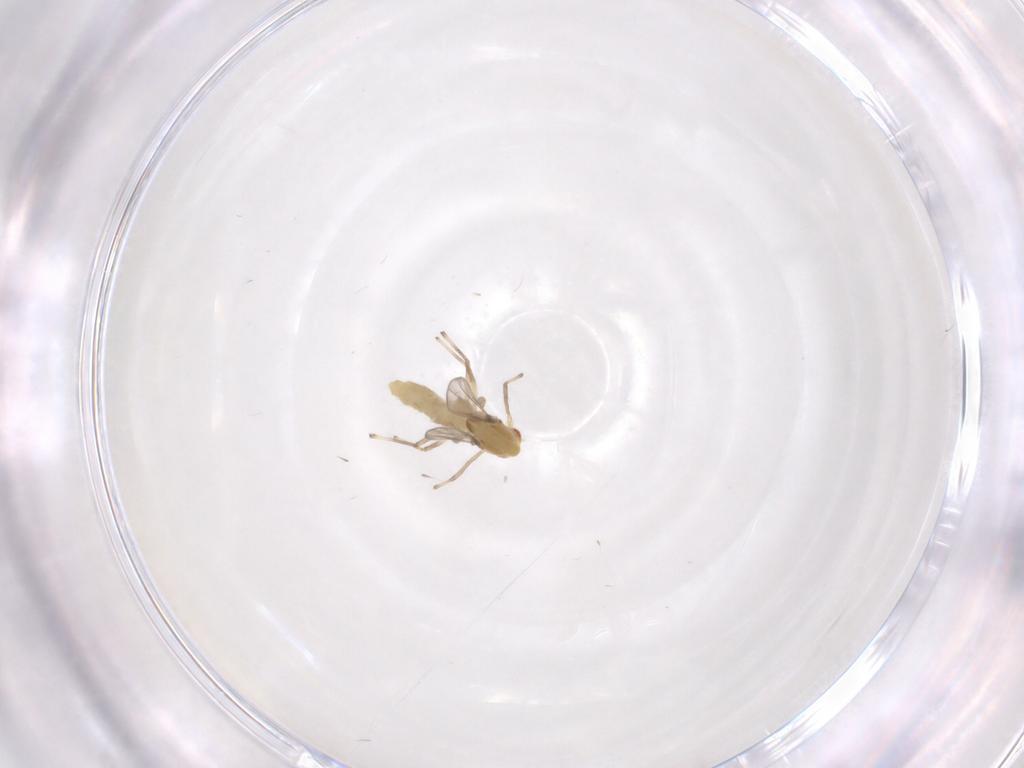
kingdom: Animalia
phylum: Arthropoda
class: Insecta
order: Diptera
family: Chironomidae
